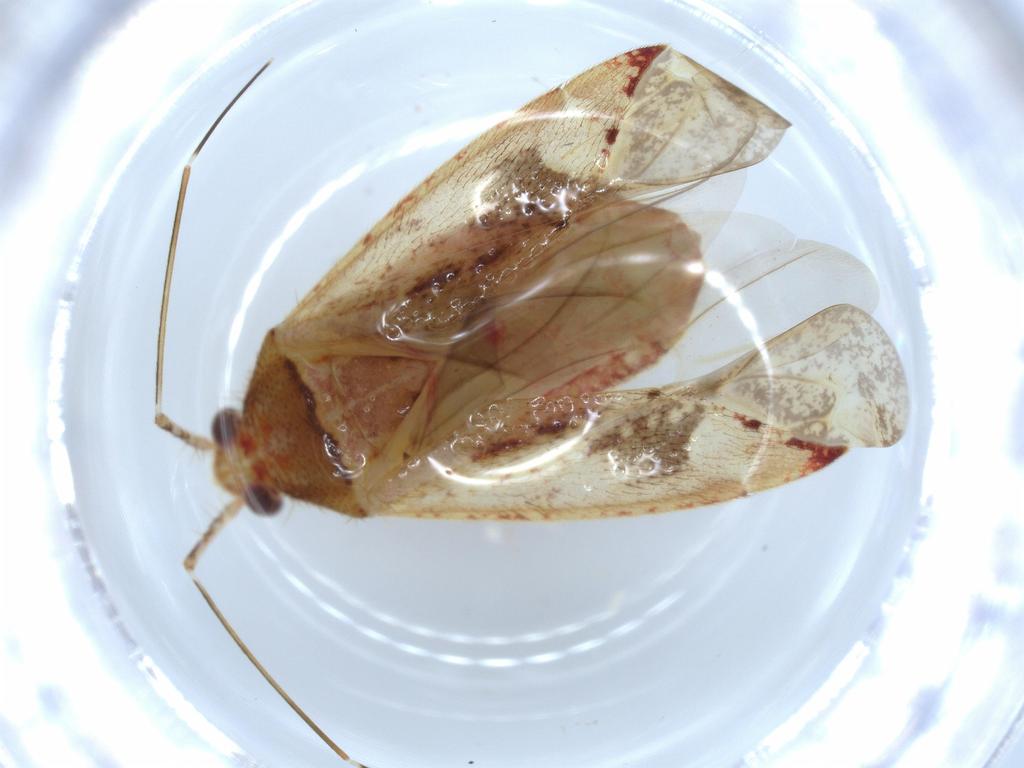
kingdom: Animalia
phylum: Arthropoda
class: Insecta
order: Hemiptera
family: Miridae
